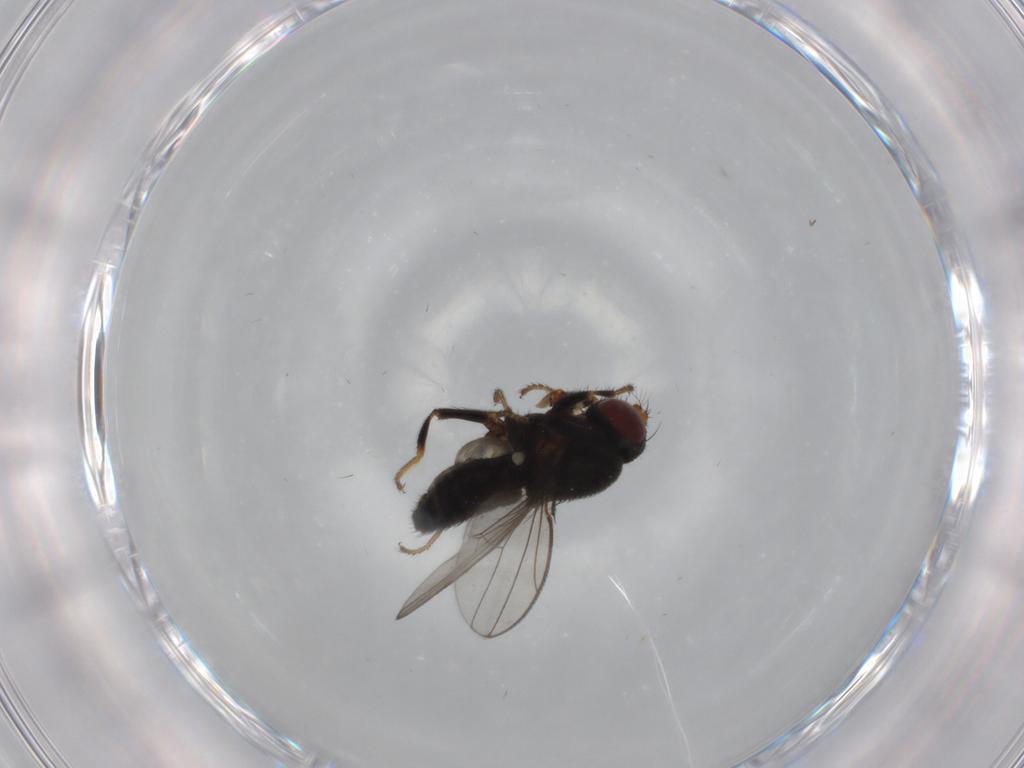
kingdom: Animalia
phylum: Arthropoda
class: Insecta
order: Diptera
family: Ephydridae
